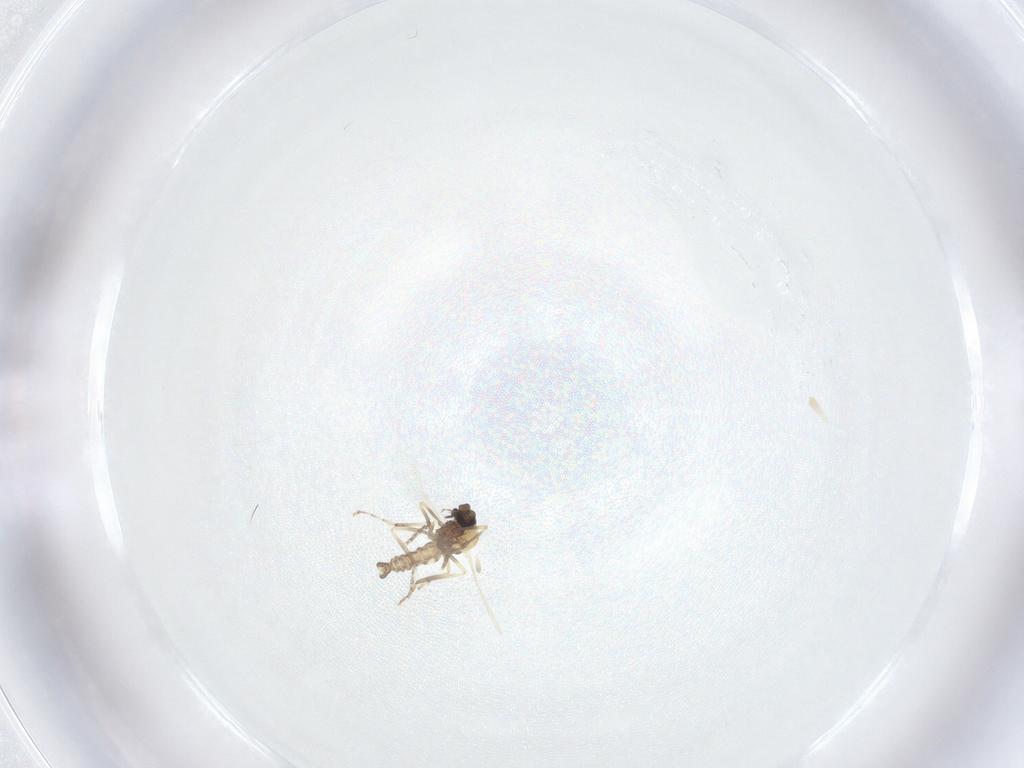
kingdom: Animalia
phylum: Arthropoda
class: Insecta
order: Diptera
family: Ceratopogonidae
